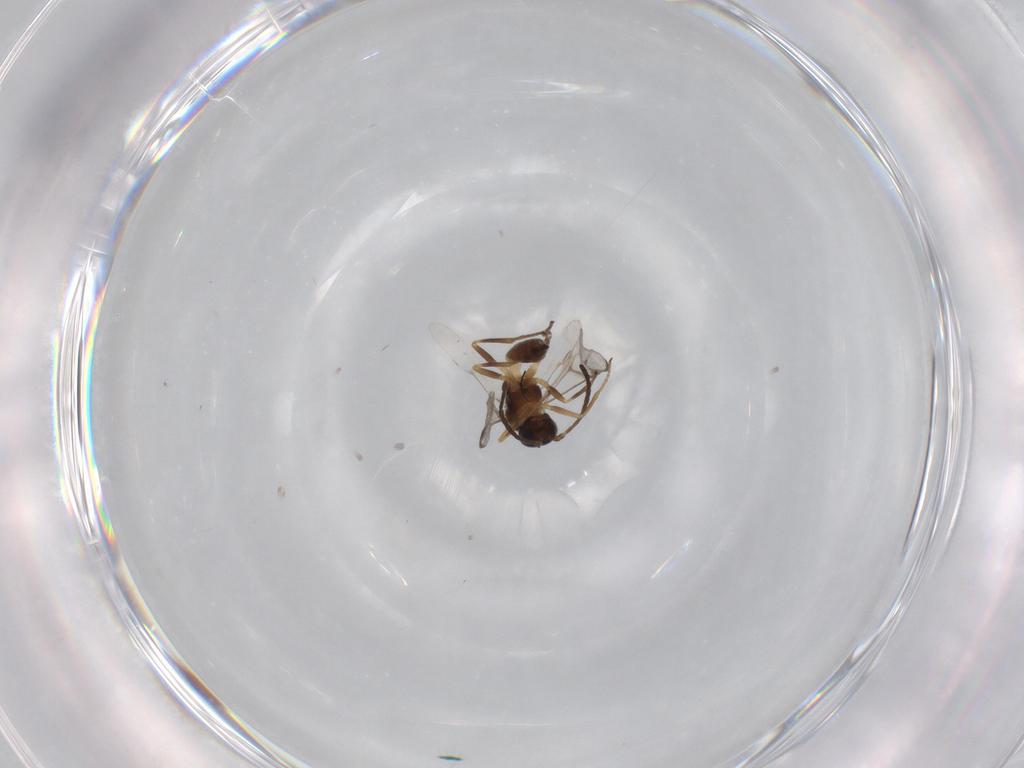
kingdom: Animalia
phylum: Arthropoda
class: Insecta
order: Hymenoptera
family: Braconidae
